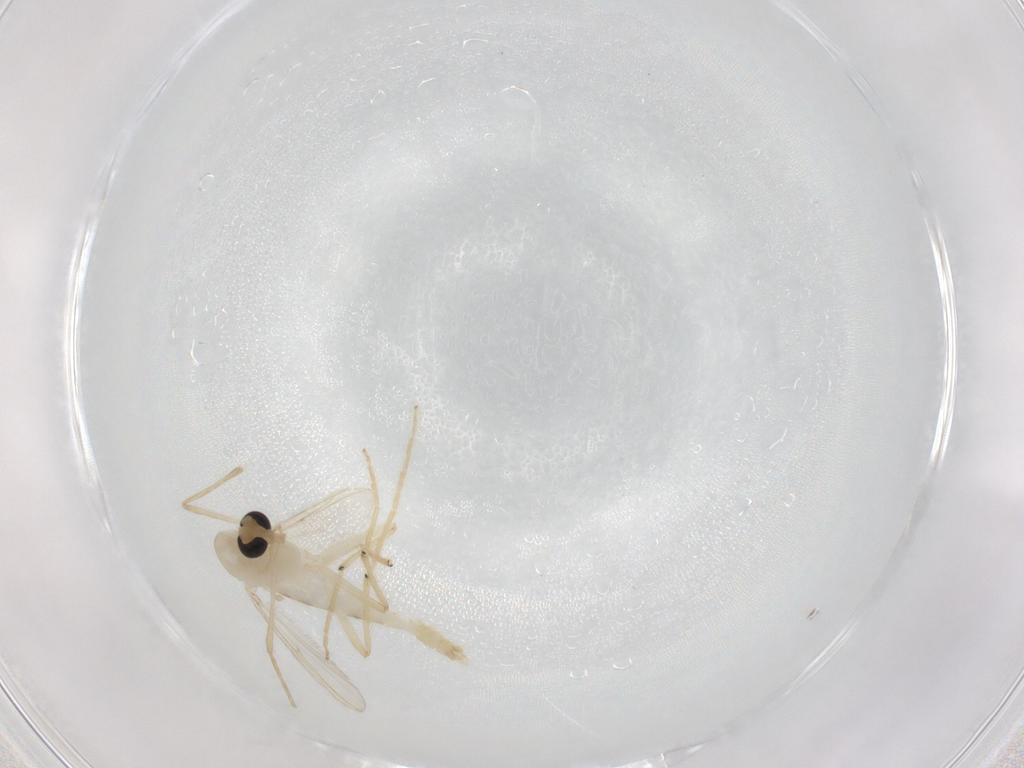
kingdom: Animalia
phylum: Arthropoda
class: Insecta
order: Diptera
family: Chironomidae
